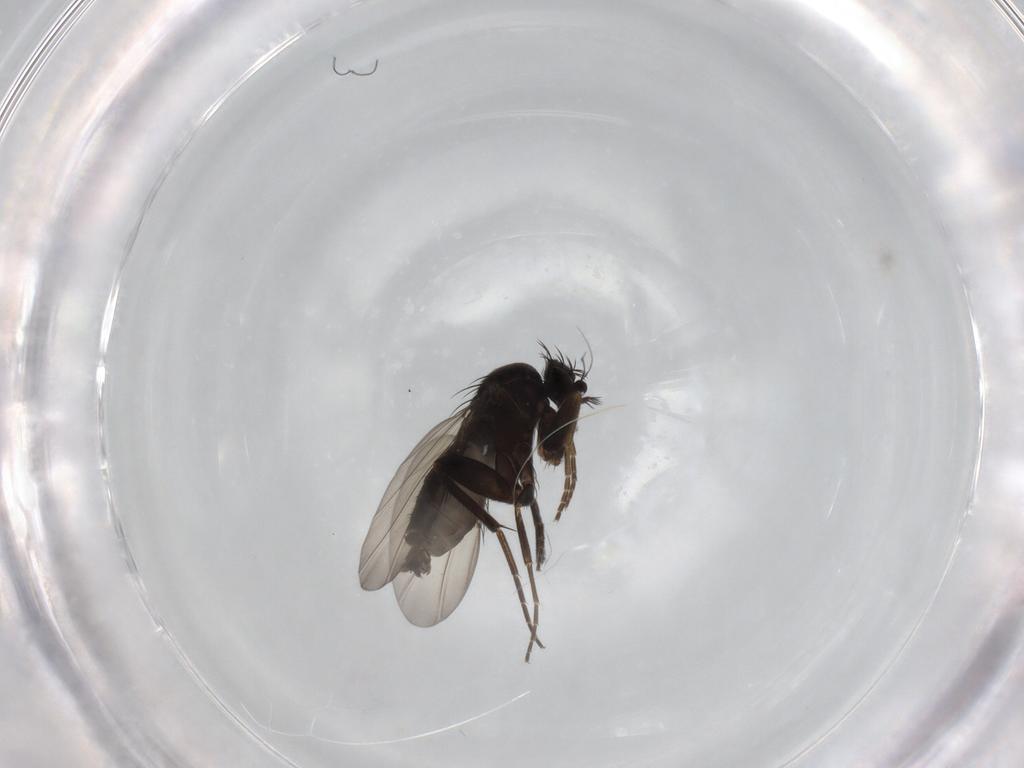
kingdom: Animalia
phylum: Arthropoda
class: Insecta
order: Diptera
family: Phoridae
